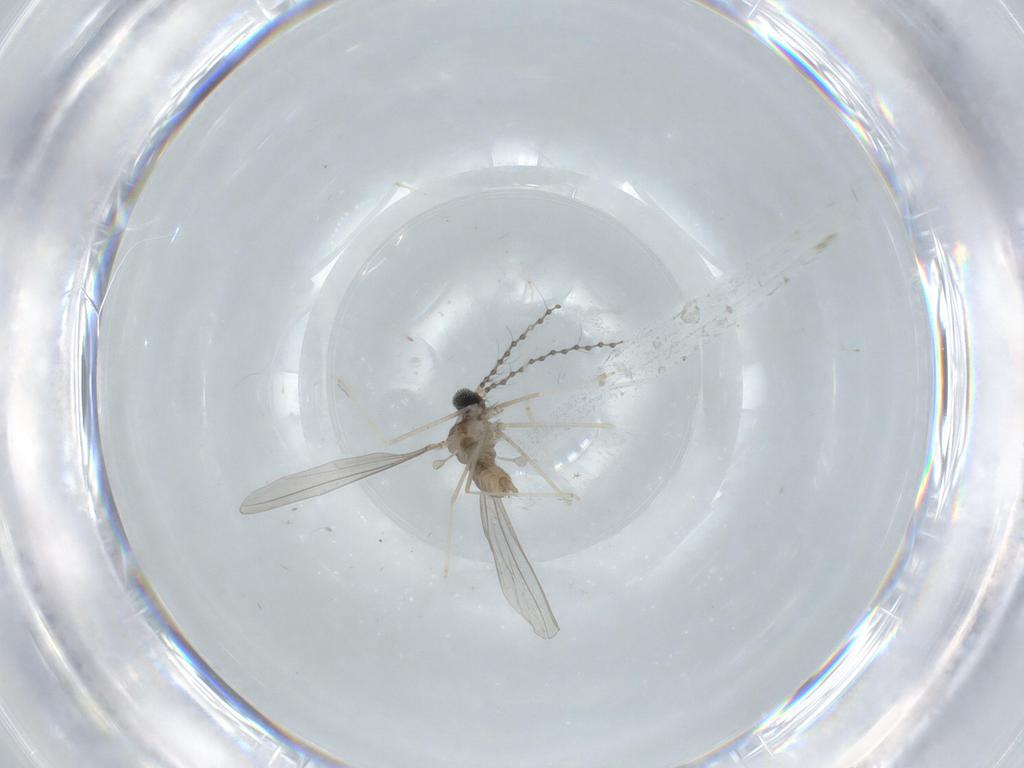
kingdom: Animalia
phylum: Arthropoda
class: Insecta
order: Diptera
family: Cecidomyiidae
